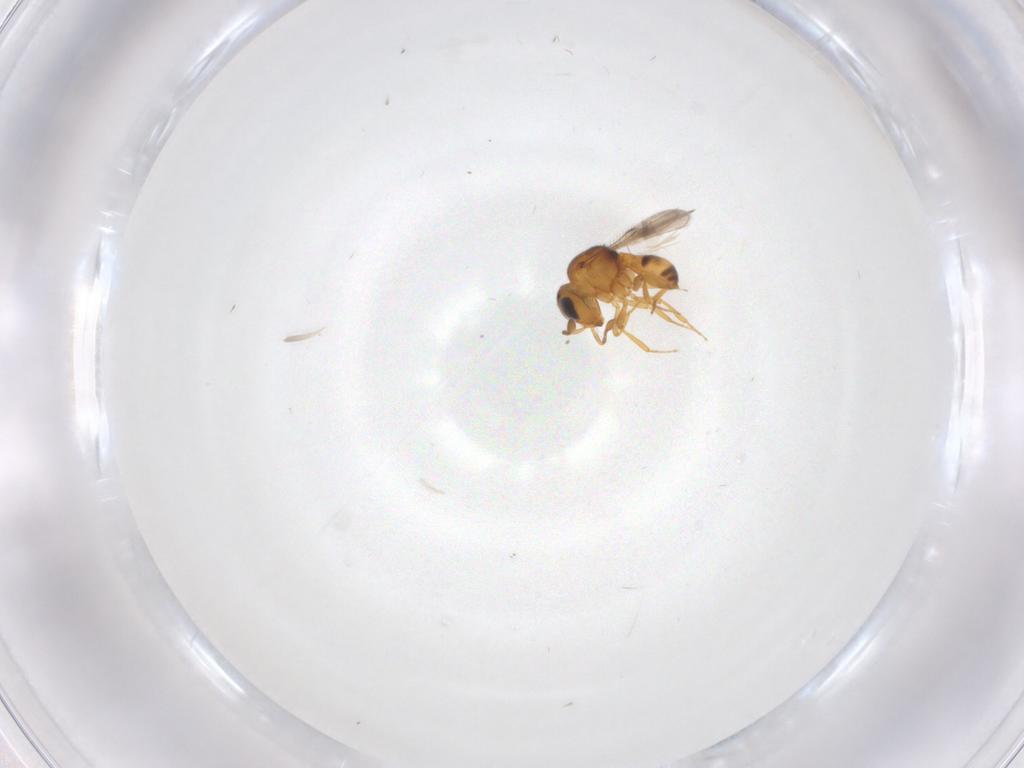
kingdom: Animalia
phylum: Arthropoda
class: Insecta
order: Hymenoptera
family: Scelionidae
